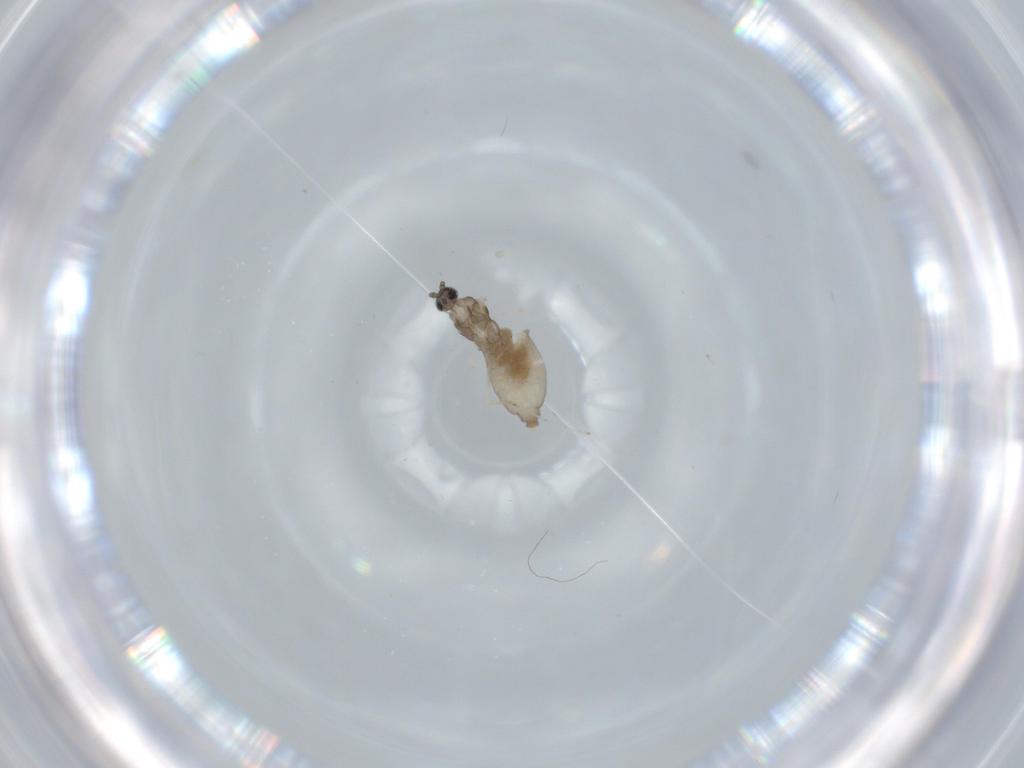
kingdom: Animalia
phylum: Arthropoda
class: Insecta
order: Diptera
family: Cecidomyiidae
